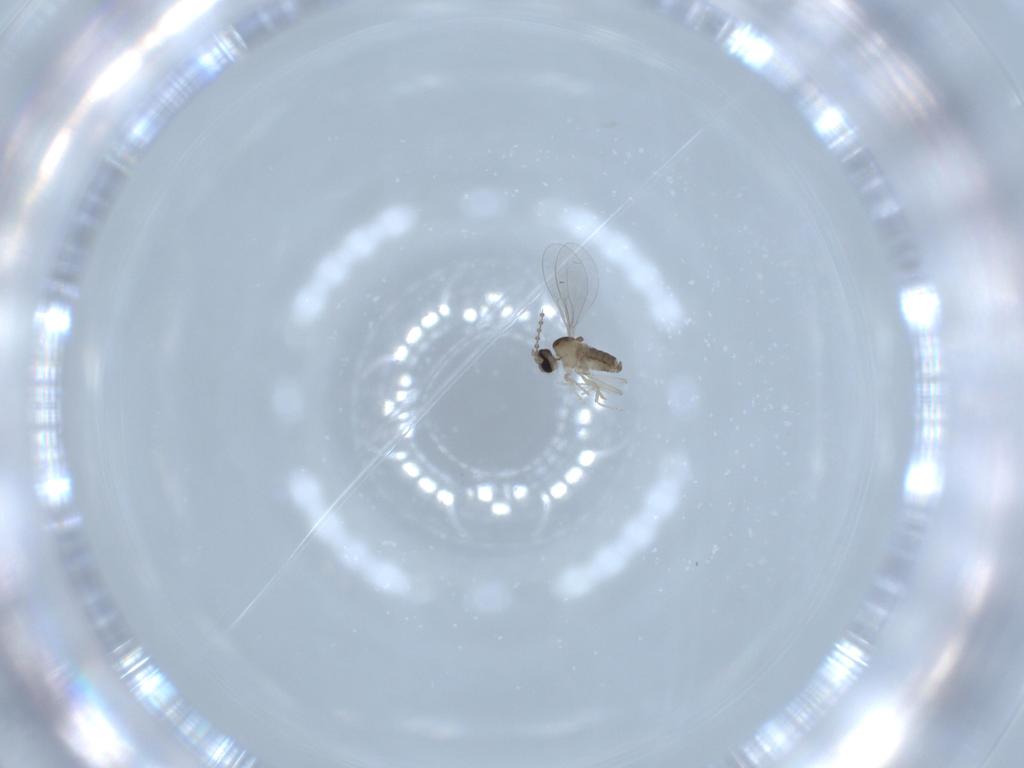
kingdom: Animalia
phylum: Arthropoda
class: Insecta
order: Diptera
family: Cecidomyiidae
